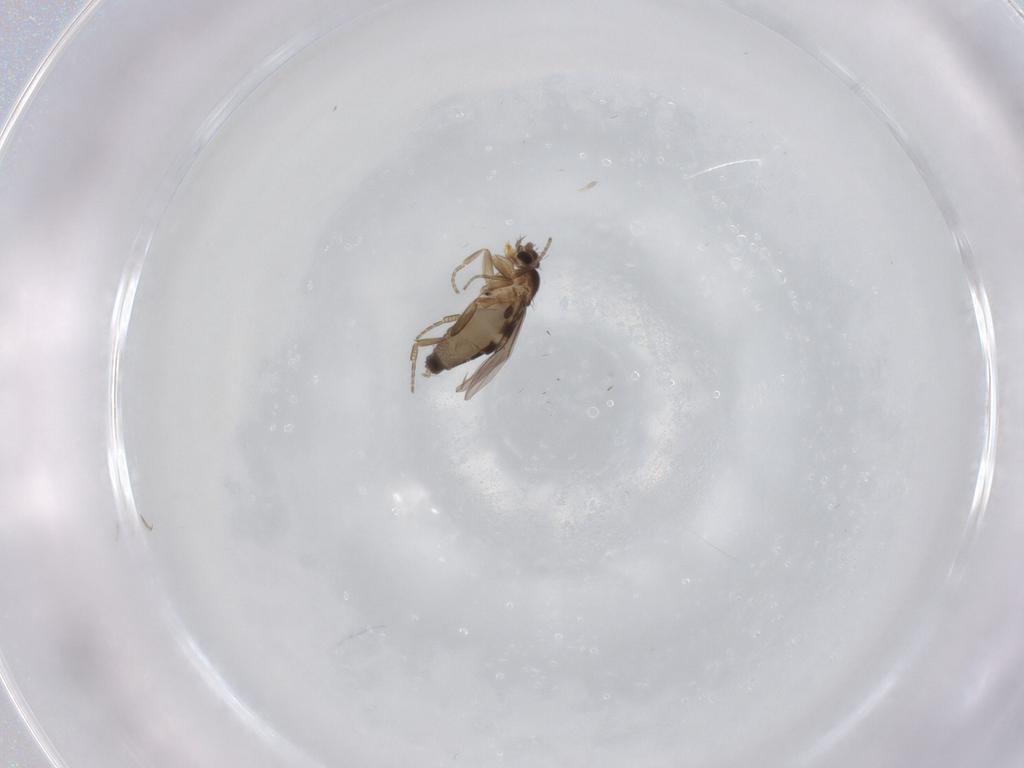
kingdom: Animalia
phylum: Arthropoda
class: Insecta
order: Diptera
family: Phoridae
